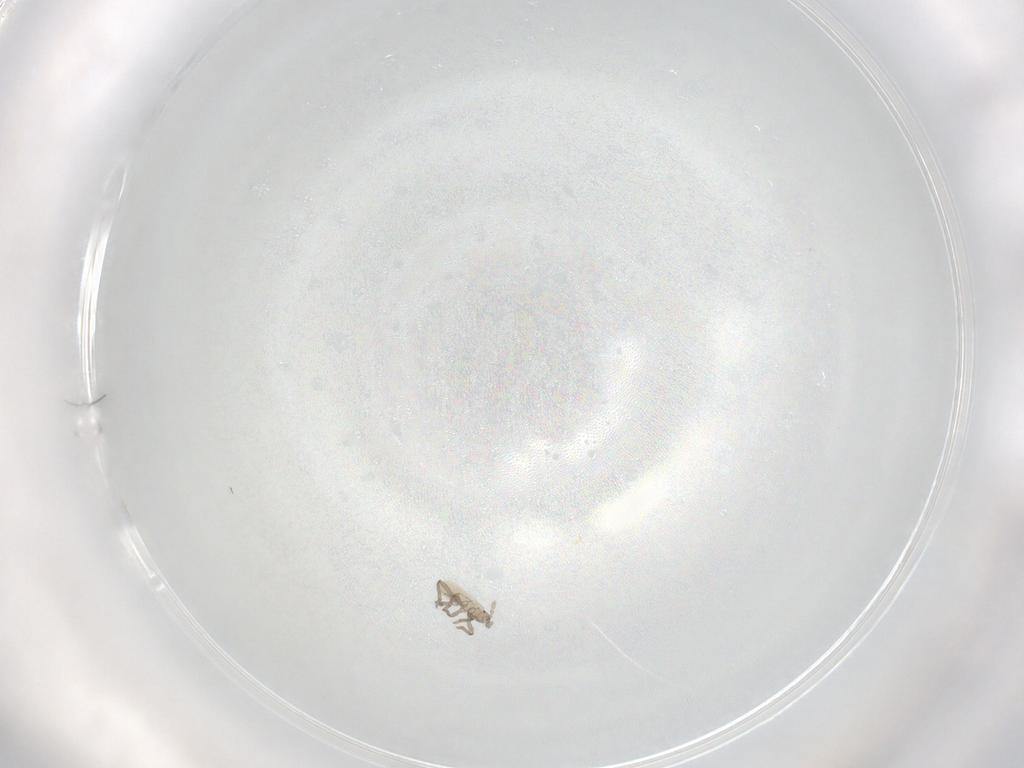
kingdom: Animalia
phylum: Arthropoda
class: Insecta
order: Hemiptera
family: Aphididae
